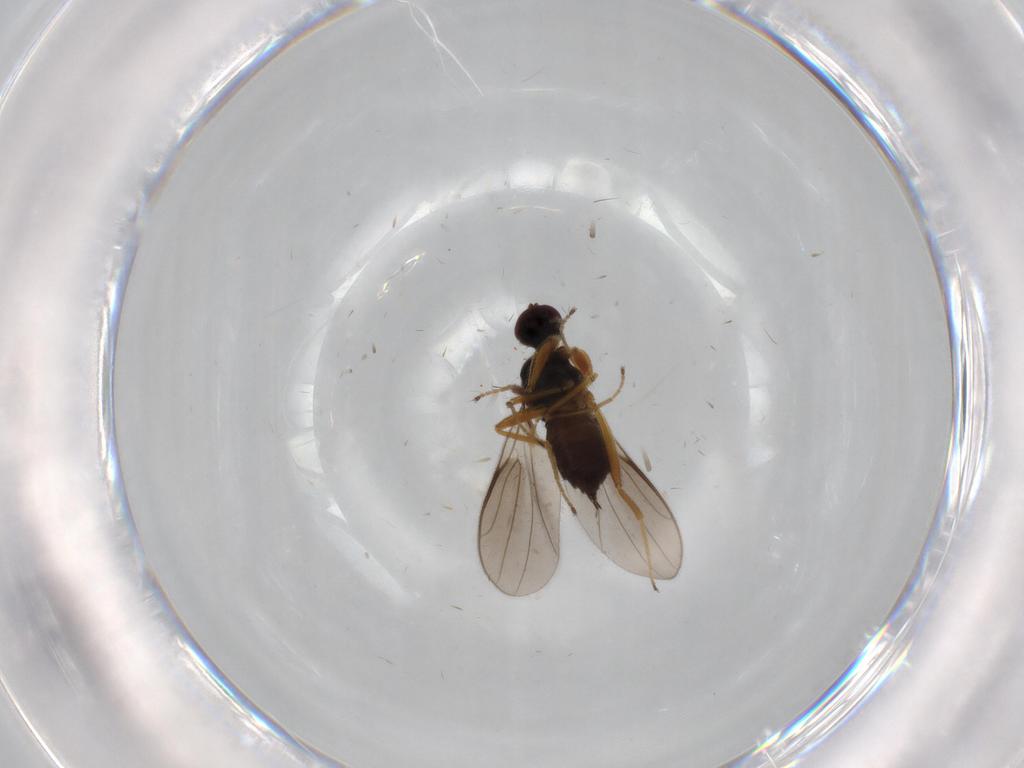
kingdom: Animalia
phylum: Arthropoda
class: Insecta
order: Diptera
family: Hybotidae
